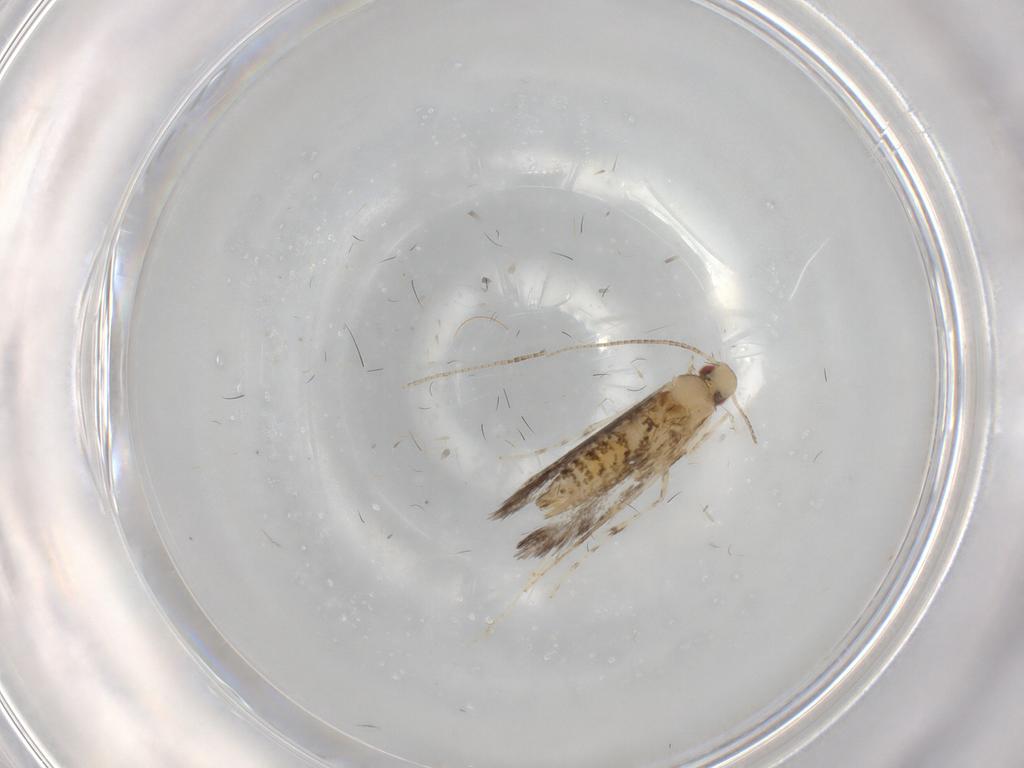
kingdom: Animalia
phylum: Arthropoda
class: Insecta
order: Lepidoptera
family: Gracillariidae
